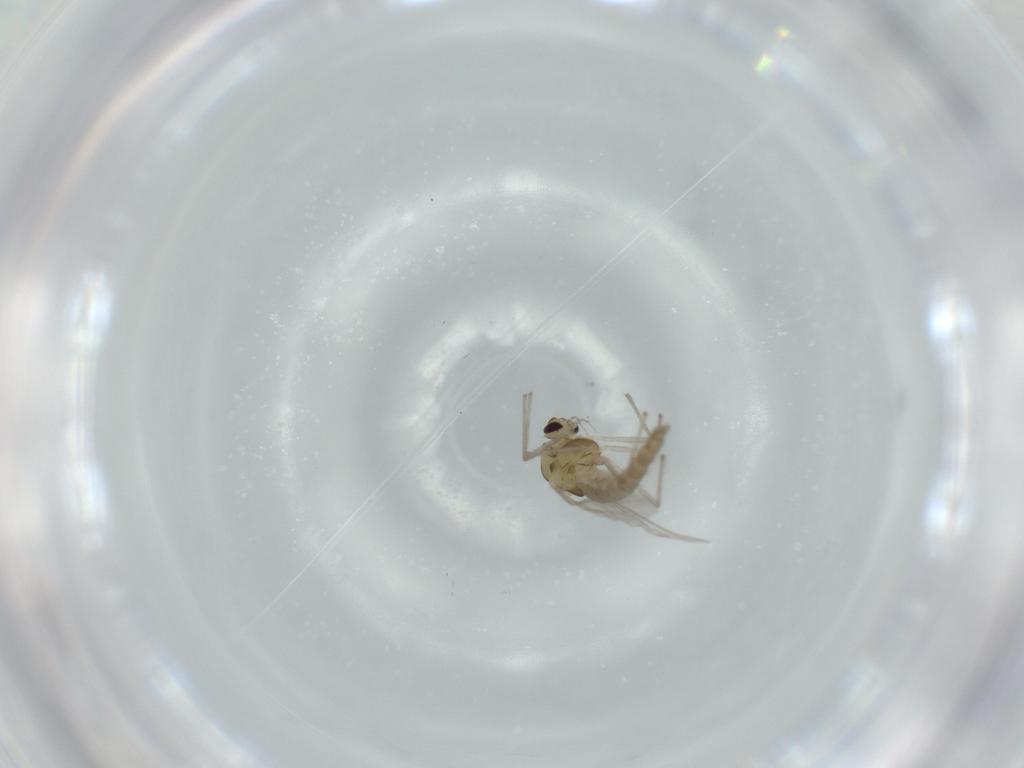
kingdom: Animalia
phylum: Arthropoda
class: Insecta
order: Diptera
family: Chironomidae
